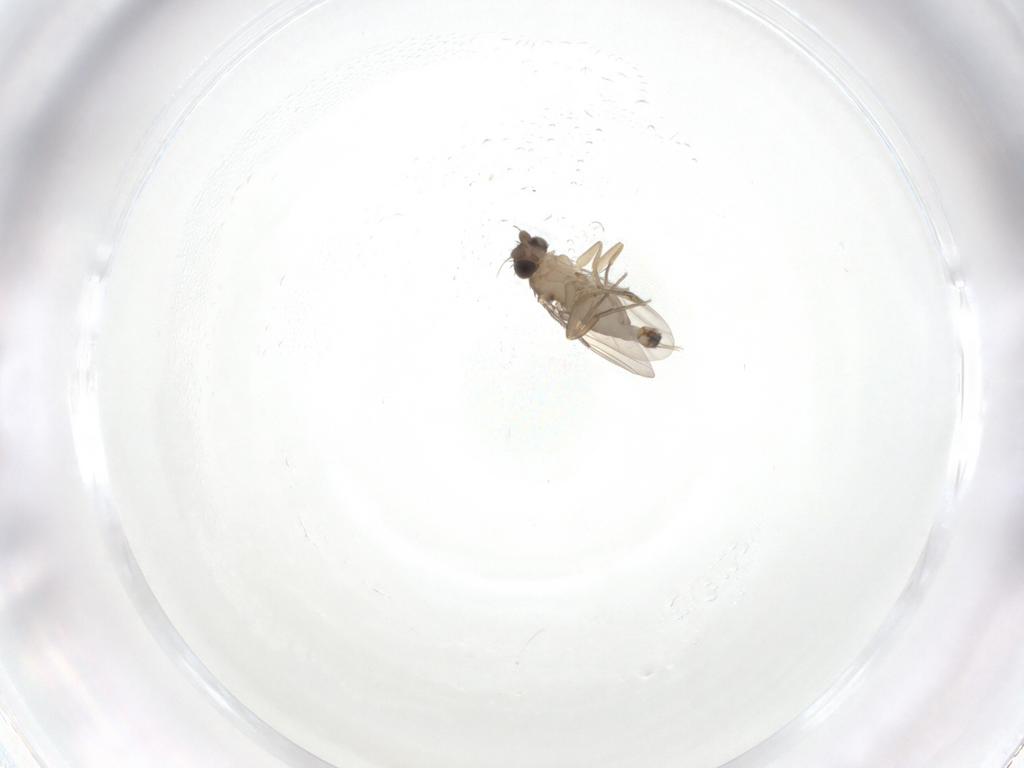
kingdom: Animalia
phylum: Arthropoda
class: Insecta
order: Diptera
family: Phoridae
